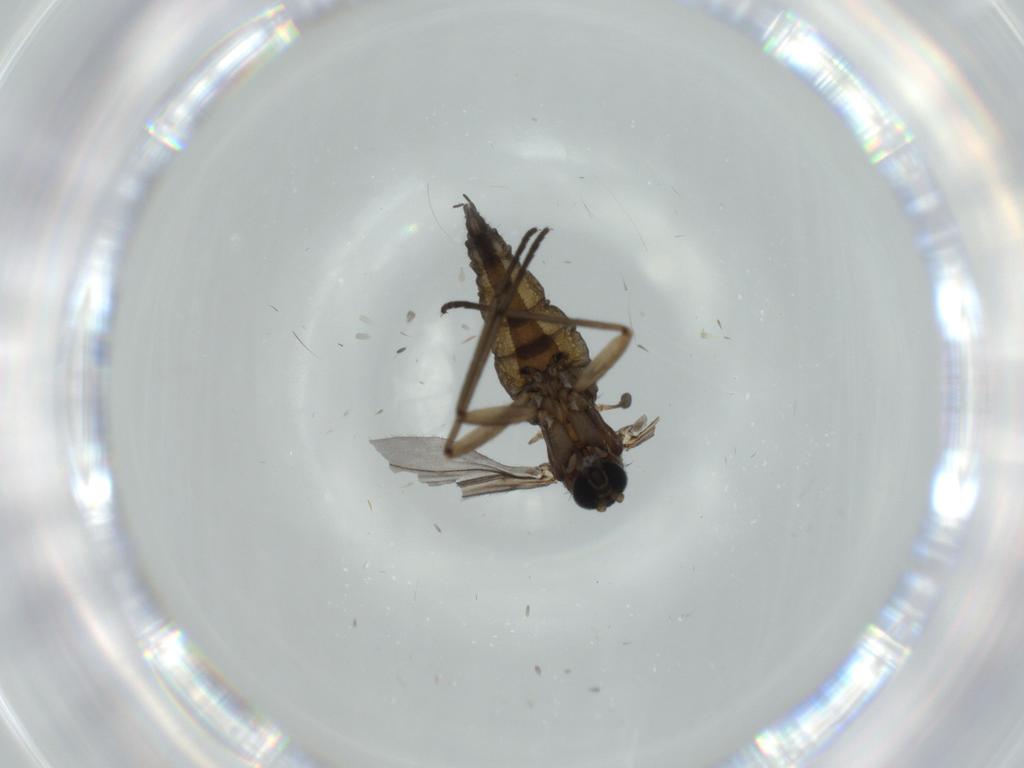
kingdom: Animalia
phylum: Arthropoda
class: Insecta
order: Diptera
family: Sciaridae
